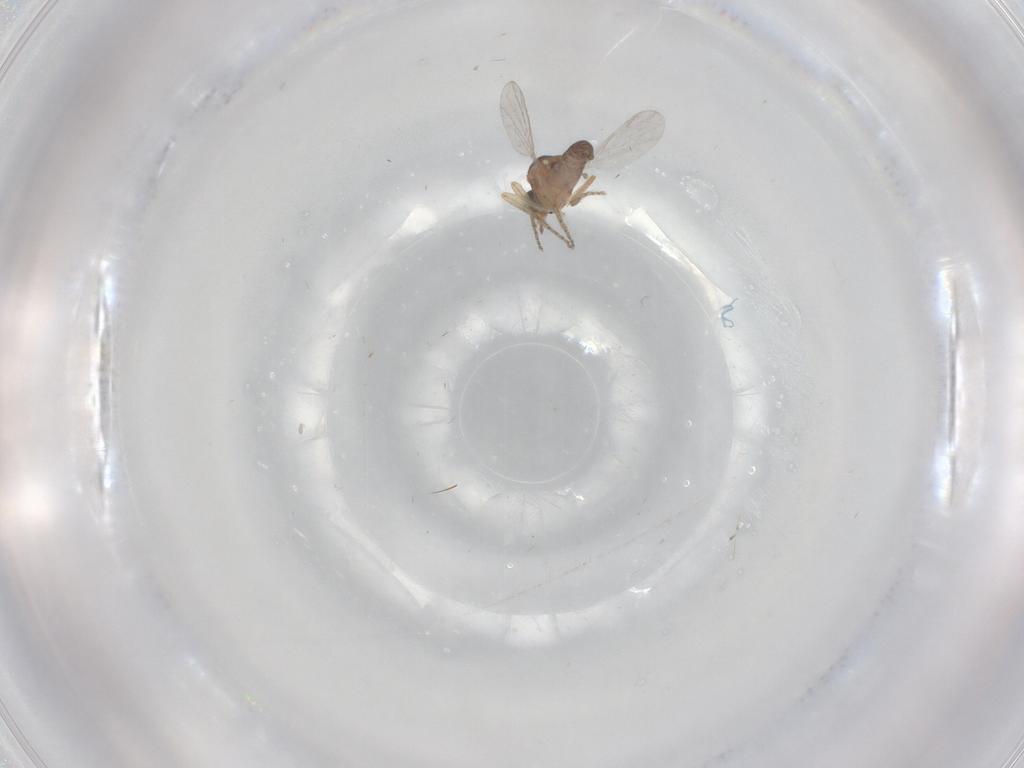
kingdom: Animalia
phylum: Arthropoda
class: Insecta
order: Diptera
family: Ceratopogonidae
